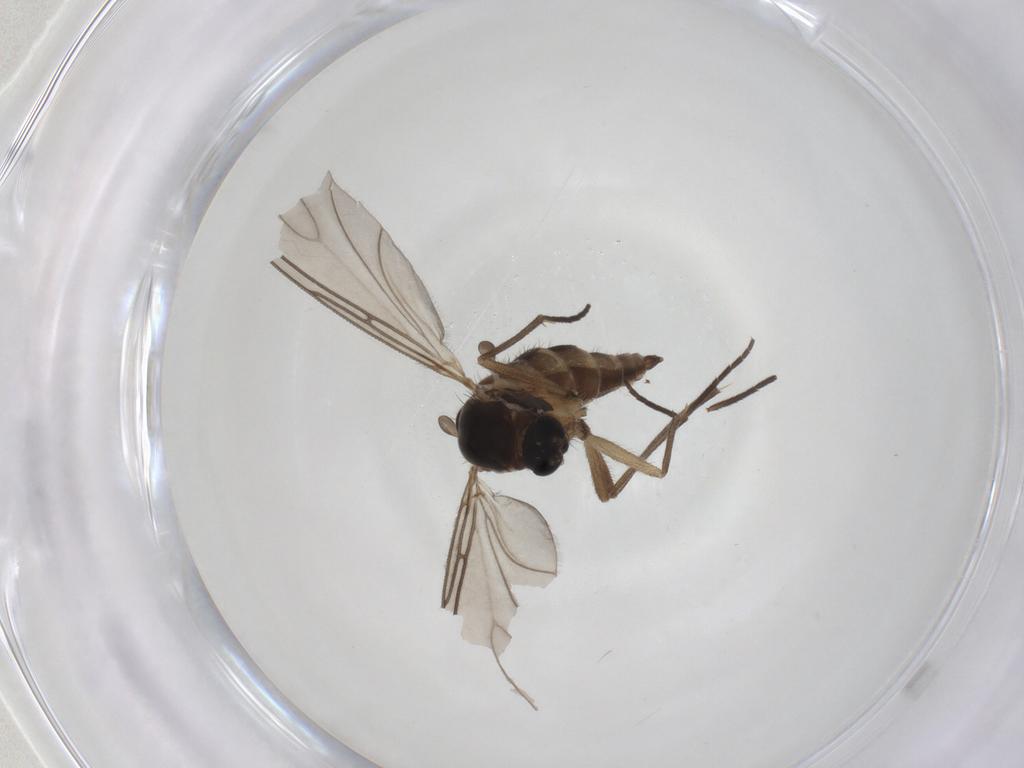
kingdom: Animalia
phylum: Arthropoda
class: Insecta
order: Diptera
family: Sciaridae
